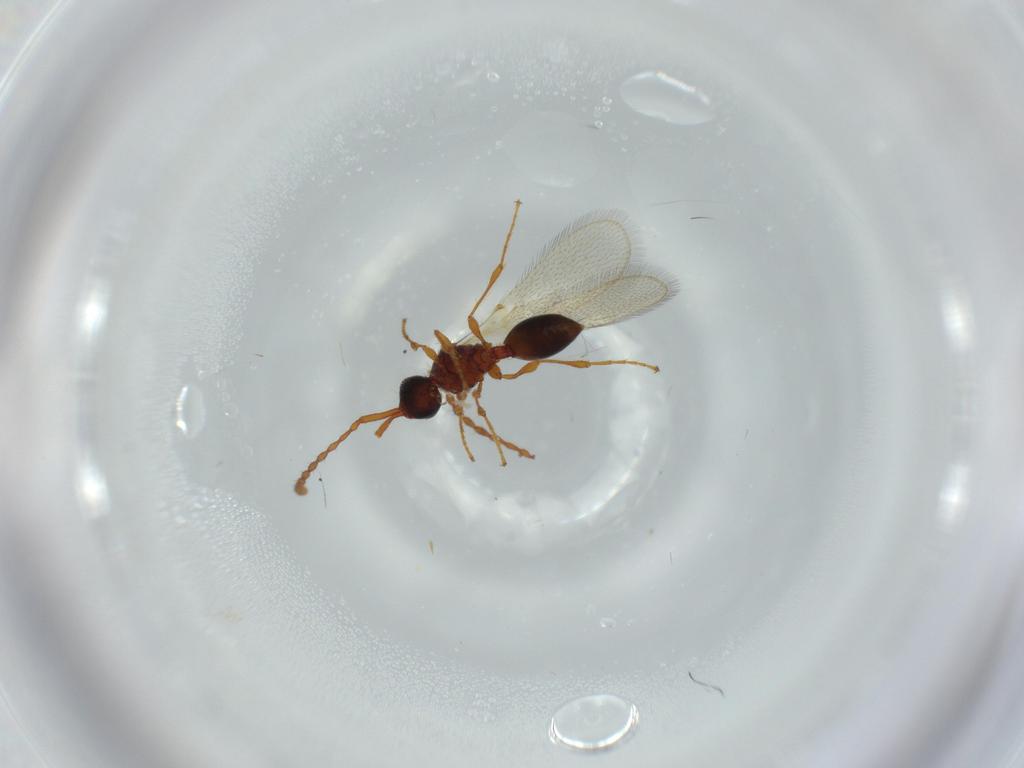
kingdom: Animalia
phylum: Arthropoda
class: Insecta
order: Hymenoptera
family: Diapriidae
